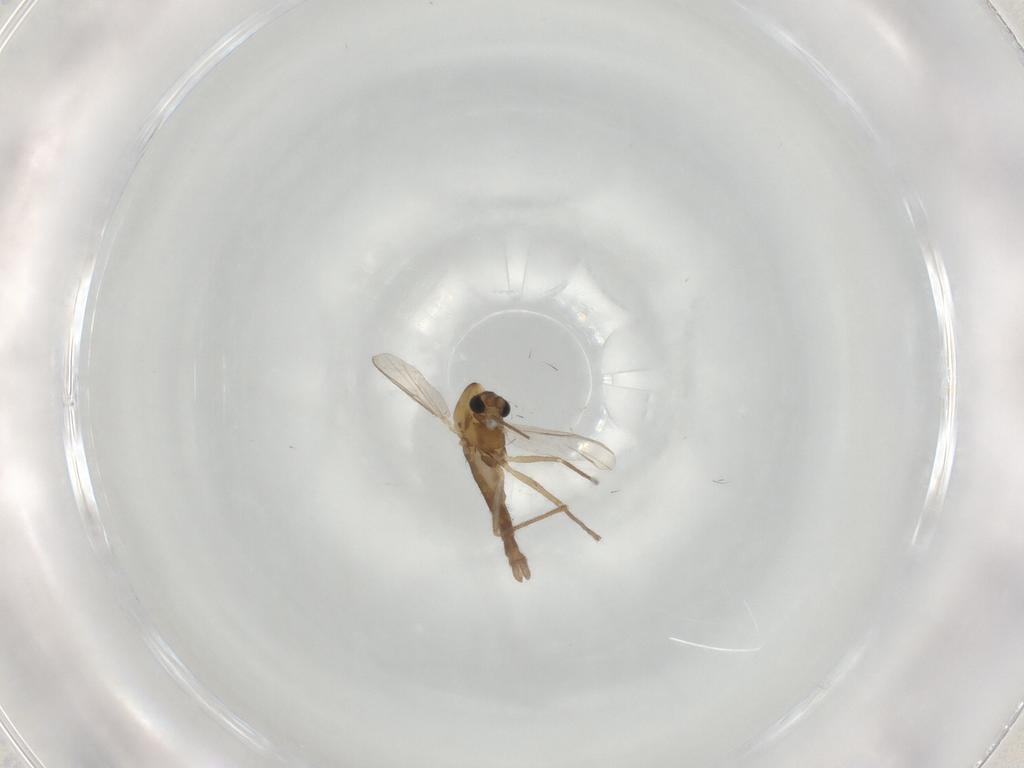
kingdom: Animalia
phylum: Arthropoda
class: Insecta
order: Diptera
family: Chironomidae
